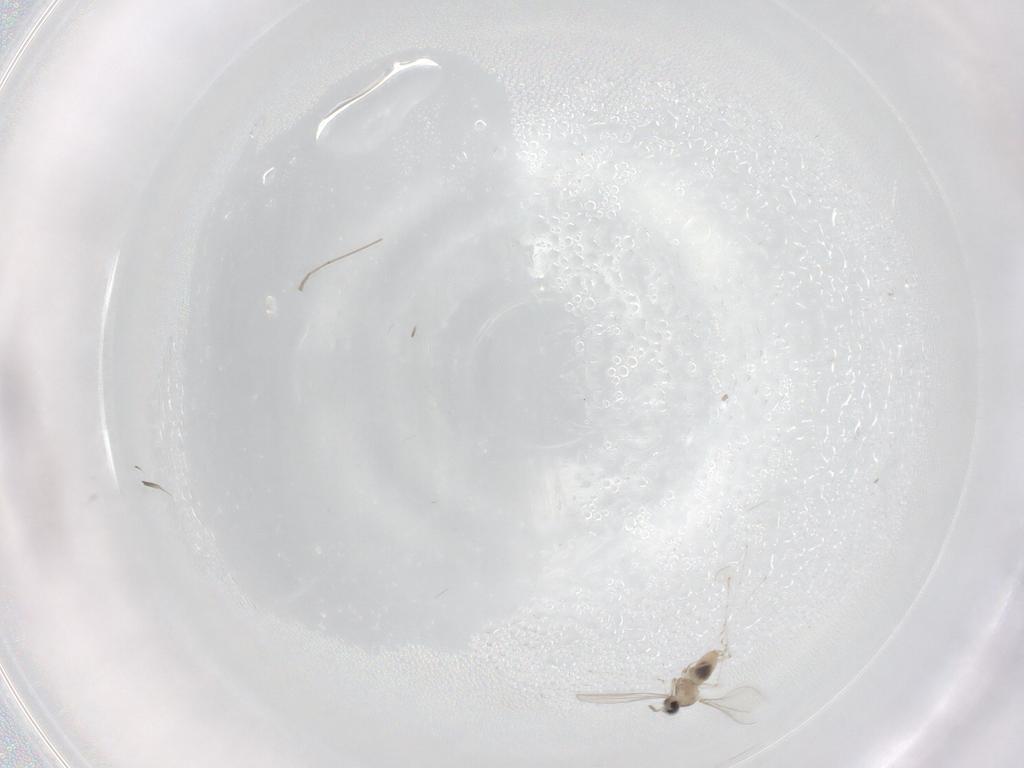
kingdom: Animalia
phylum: Arthropoda
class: Insecta
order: Diptera
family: Cecidomyiidae
